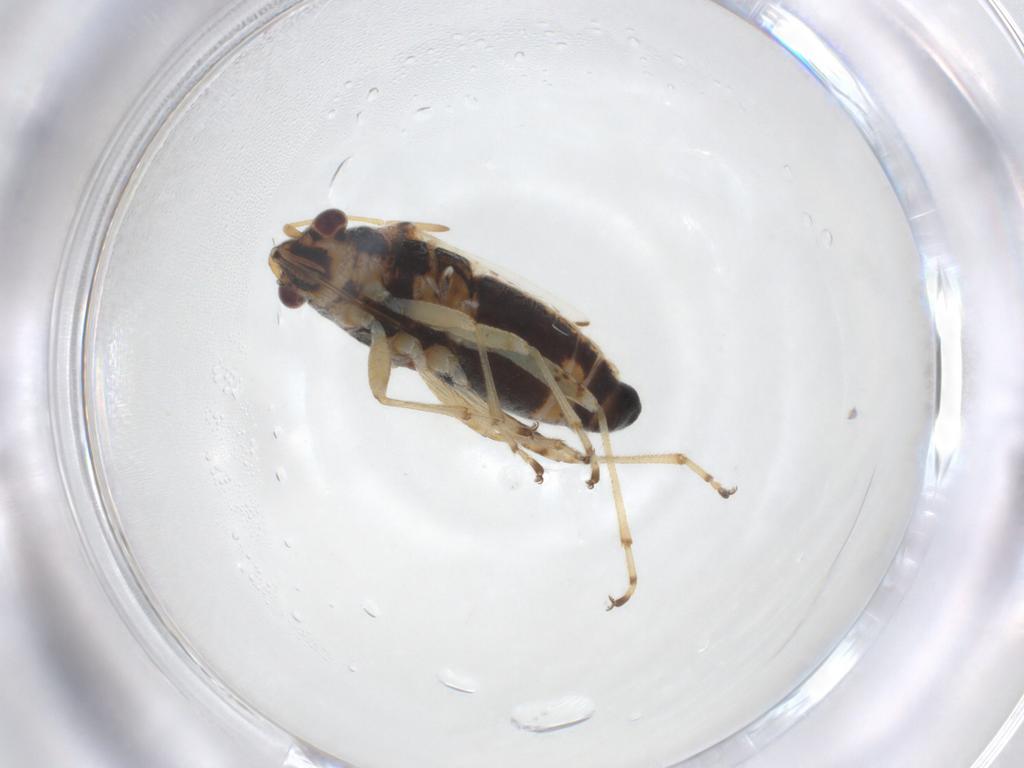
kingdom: Animalia
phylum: Arthropoda
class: Insecta
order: Hemiptera
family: Lygaeidae
